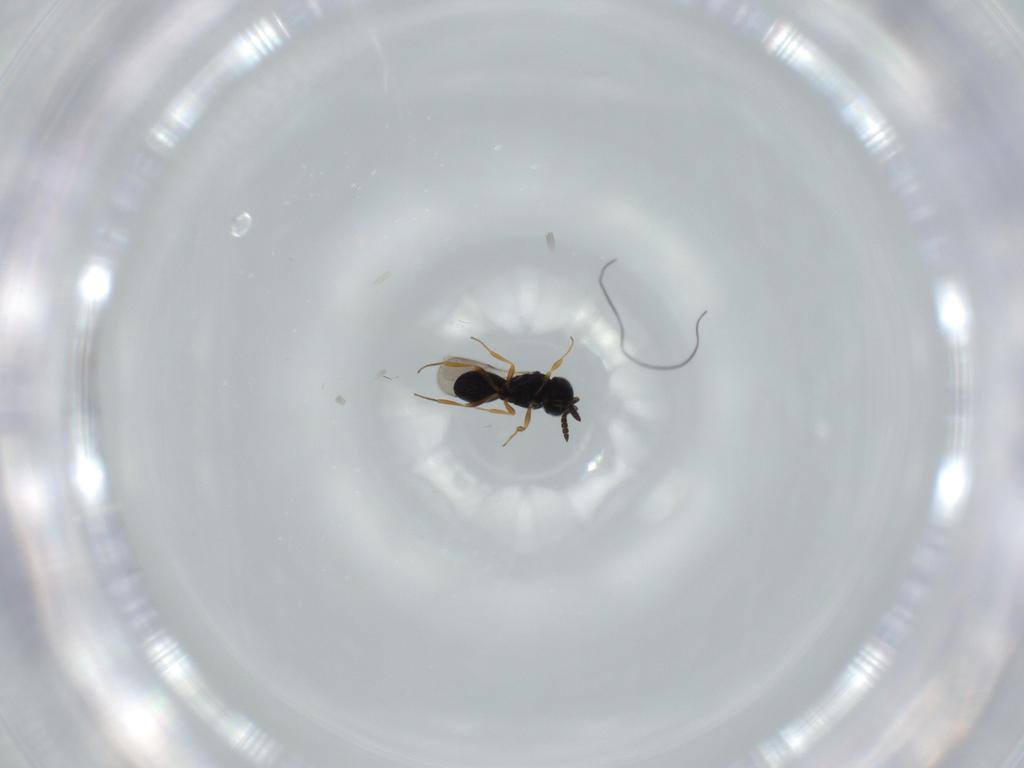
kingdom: Animalia
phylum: Arthropoda
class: Insecta
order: Hymenoptera
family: Scelionidae
